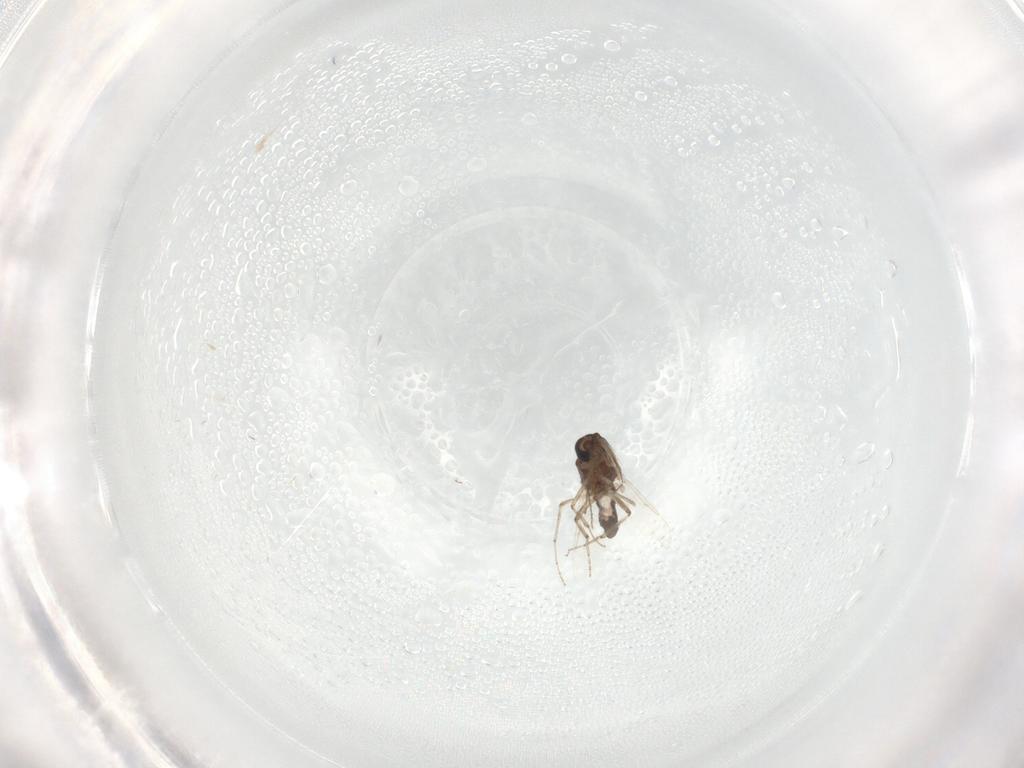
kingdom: Animalia
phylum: Arthropoda
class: Insecta
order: Diptera
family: Ceratopogonidae
